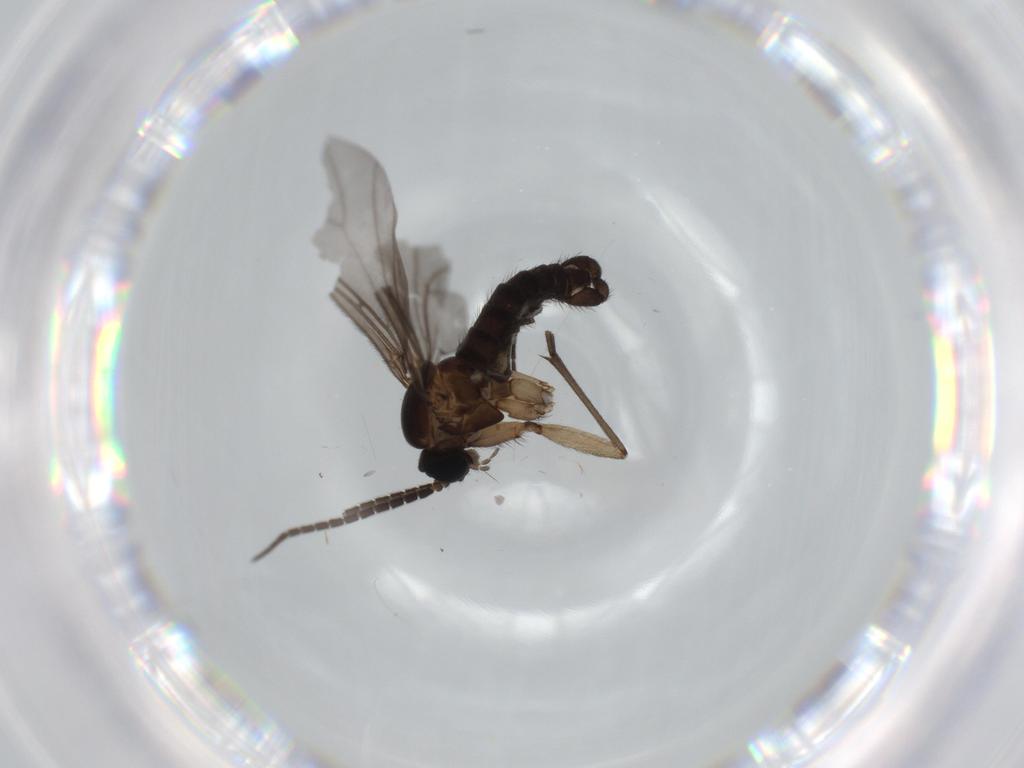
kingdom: Animalia
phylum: Arthropoda
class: Insecta
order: Diptera
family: Sciaridae
